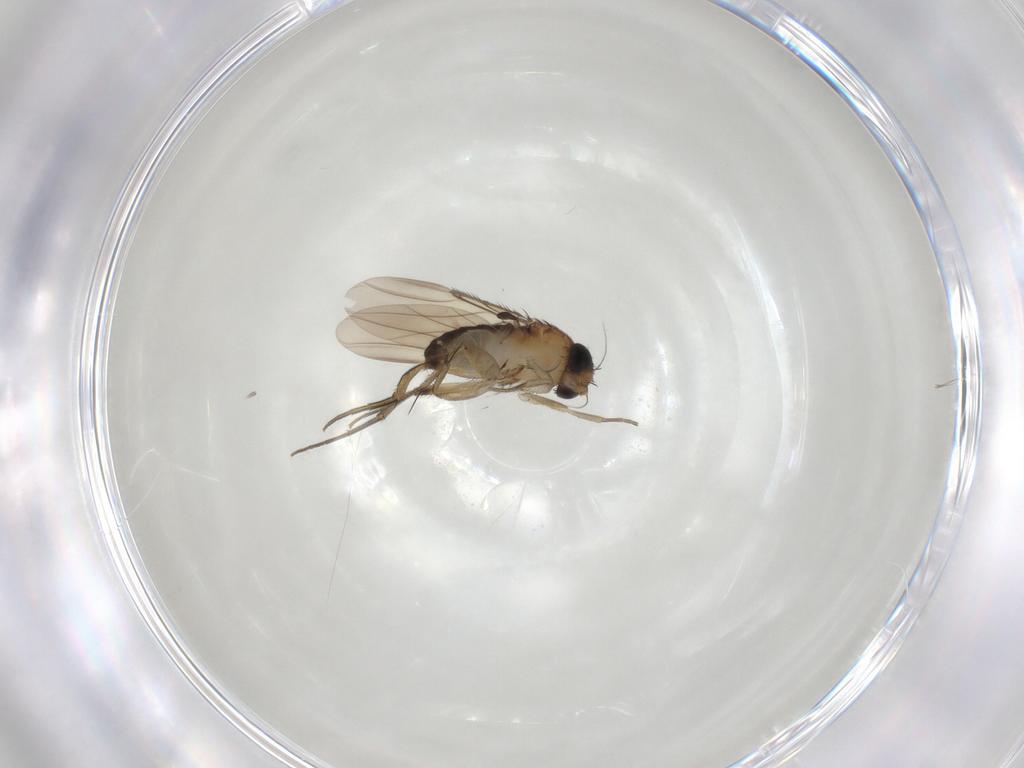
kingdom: Animalia
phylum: Arthropoda
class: Insecta
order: Diptera
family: Phoridae
